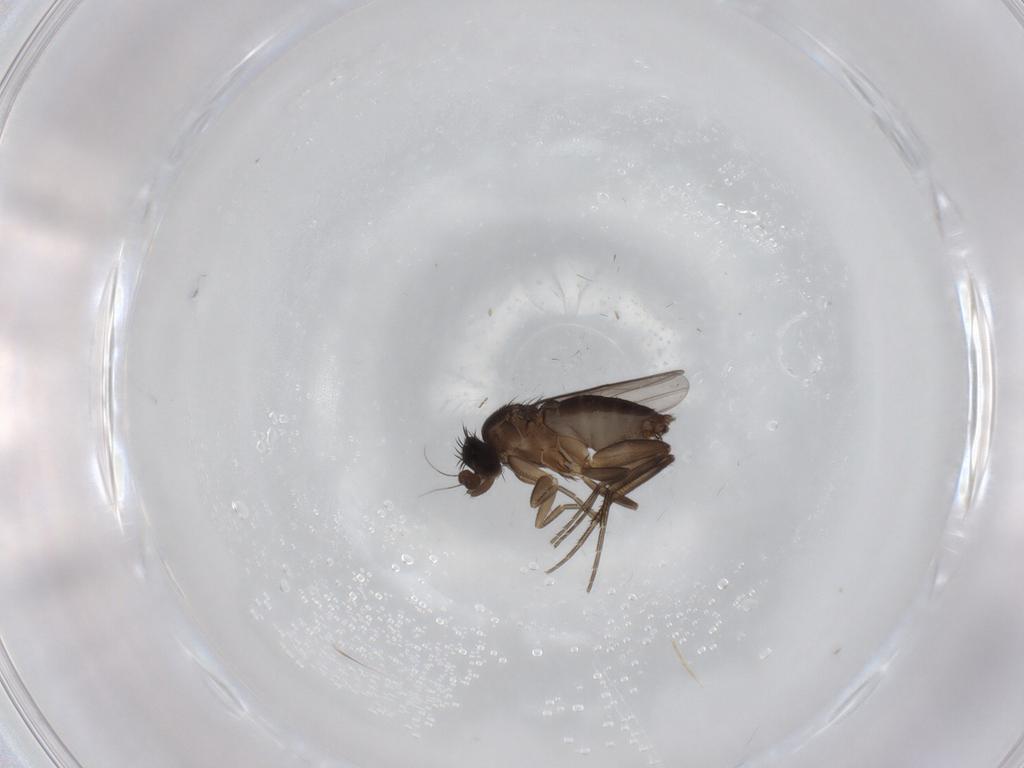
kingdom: Animalia
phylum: Arthropoda
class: Insecta
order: Diptera
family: Phoridae
